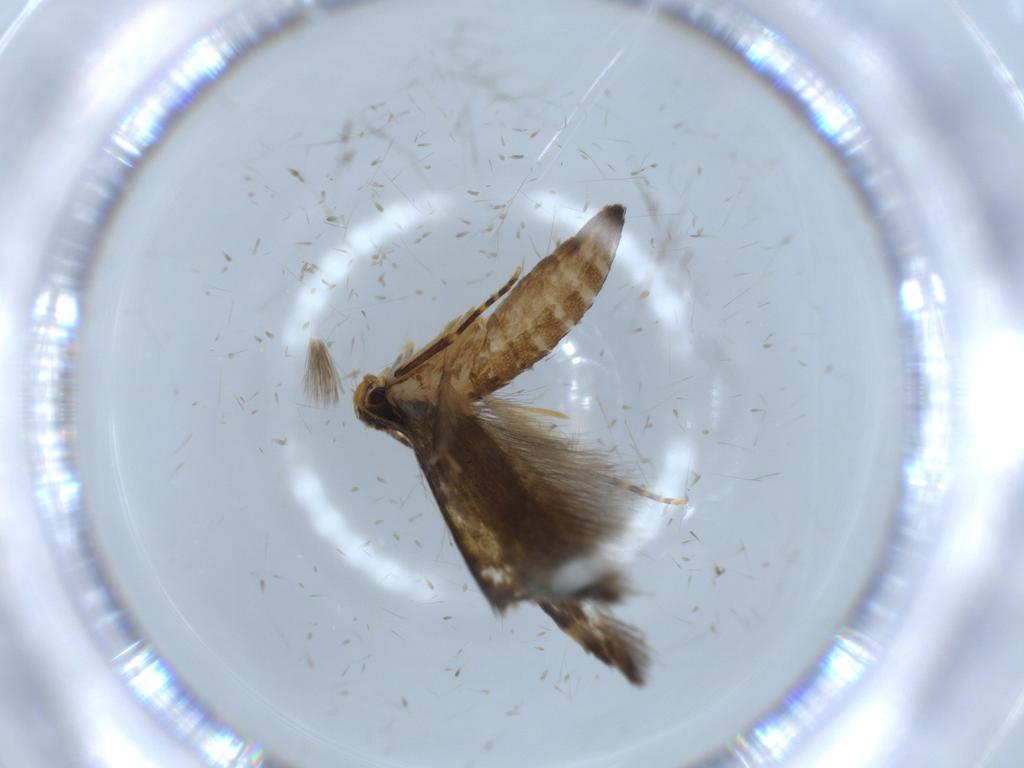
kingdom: Animalia
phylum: Arthropoda
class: Insecta
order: Lepidoptera
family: Tineidae
